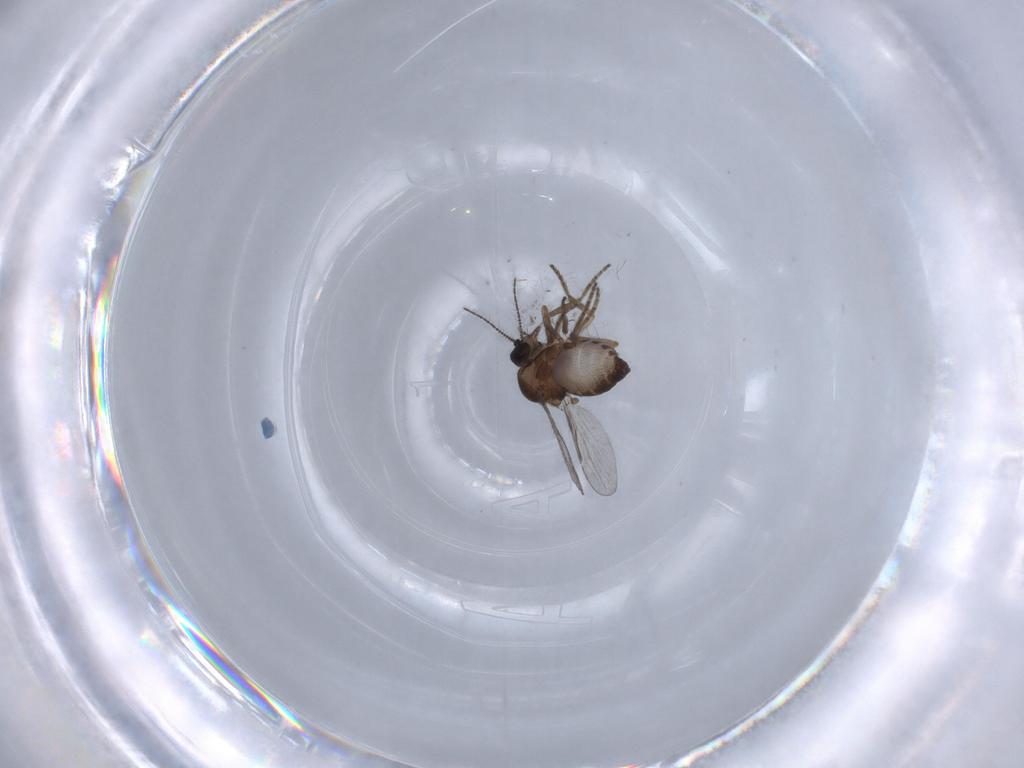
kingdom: Animalia
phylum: Arthropoda
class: Insecta
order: Diptera
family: Ceratopogonidae
